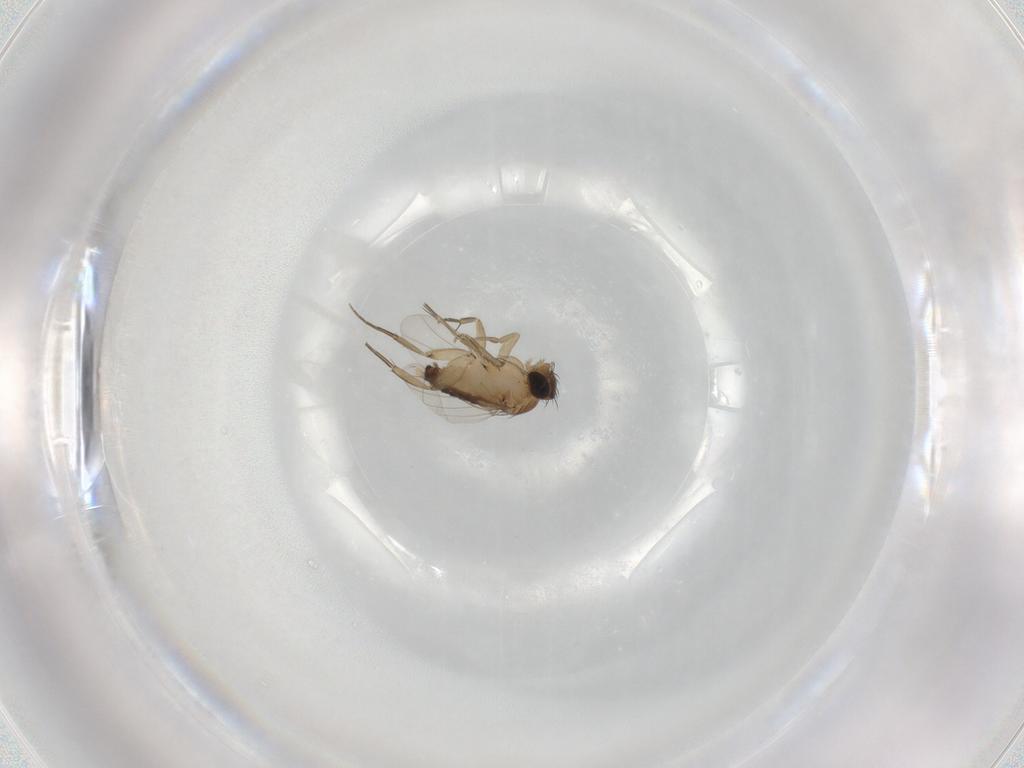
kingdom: Animalia
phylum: Arthropoda
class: Insecta
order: Diptera
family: Phoridae
